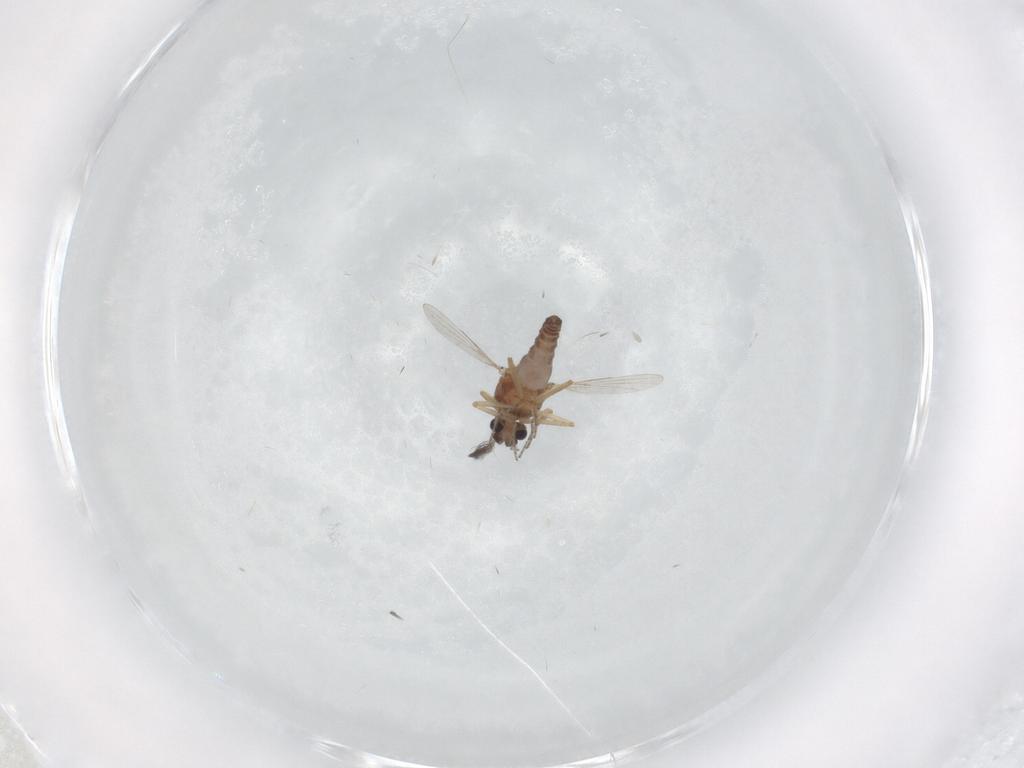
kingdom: Animalia
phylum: Arthropoda
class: Insecta
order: Diptera
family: Ceratopogonidae
